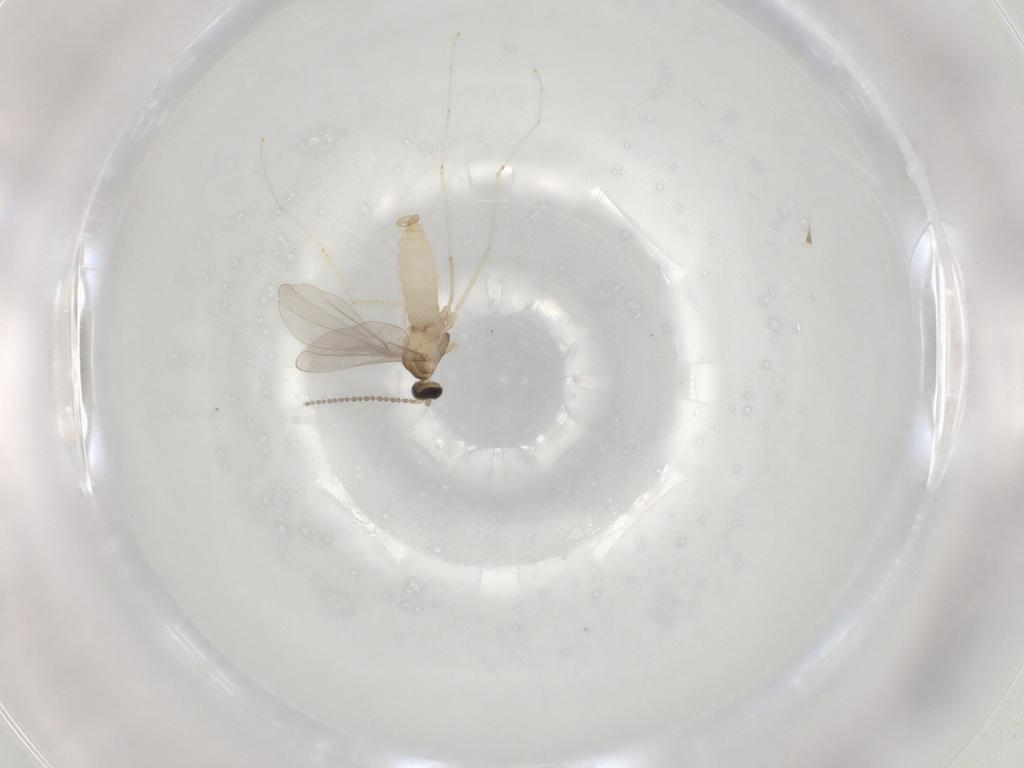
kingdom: Animalia
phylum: Arthropoda
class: Insecta
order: Diptera
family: Cecidomyiidae
